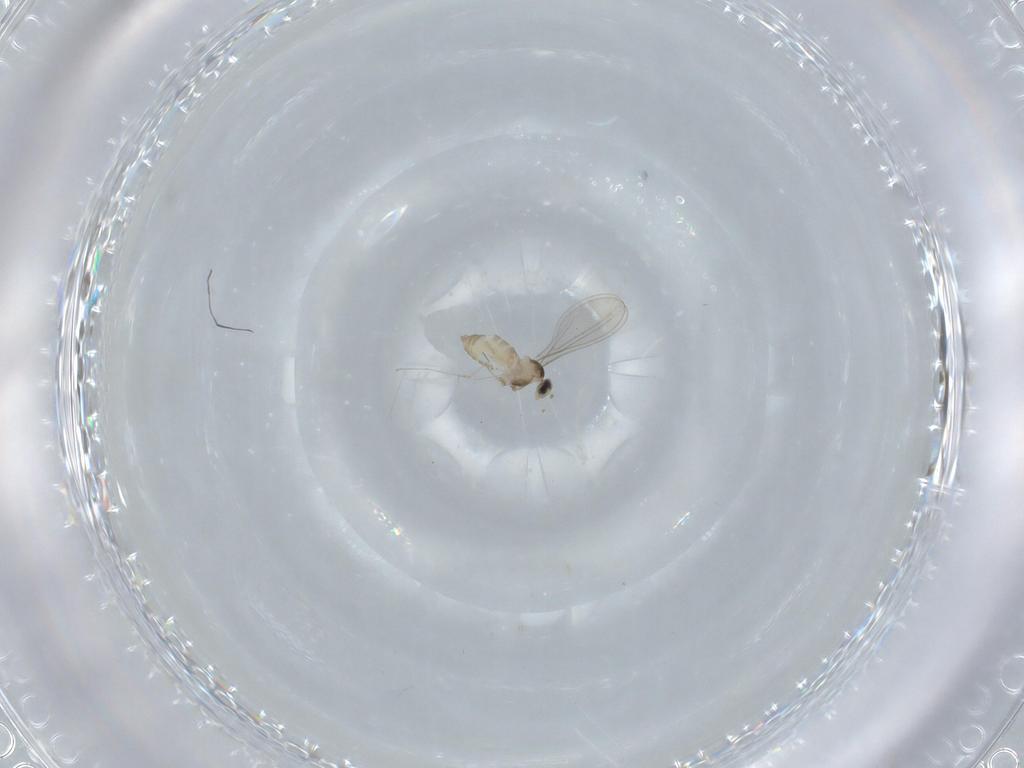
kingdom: Animalia
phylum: Arthropoda
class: Insecta
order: Diptera
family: Cecidomyiidae
